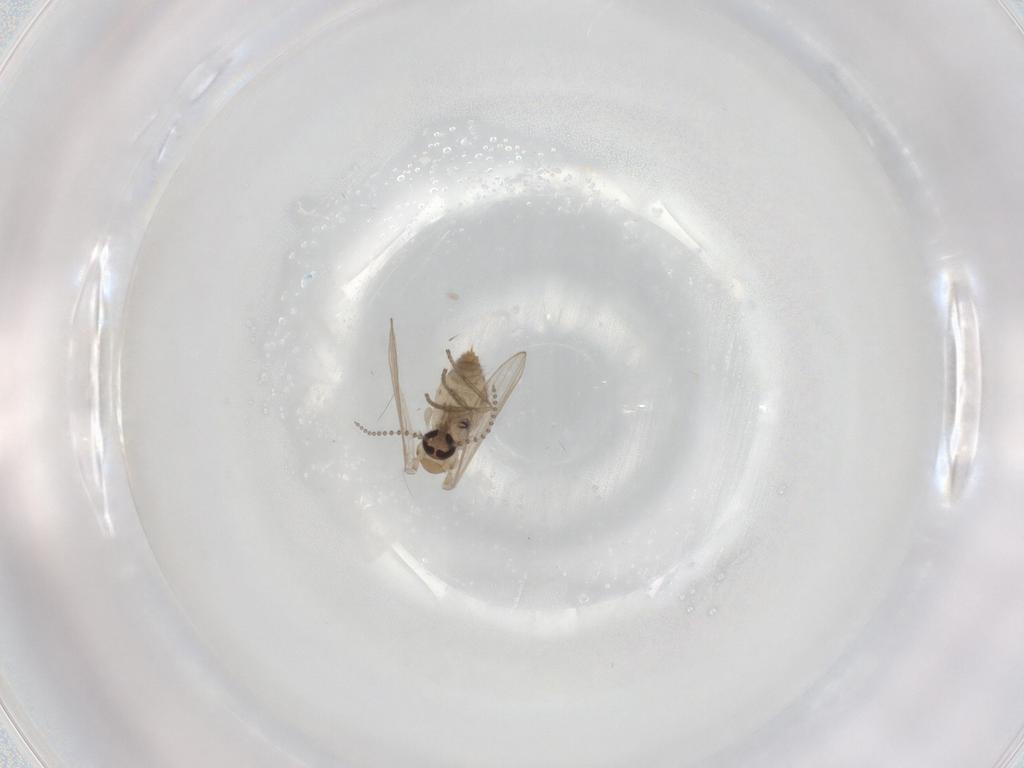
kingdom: Animalia
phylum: Arthropoda
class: Insecta
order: Diptera
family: Psychodidae
